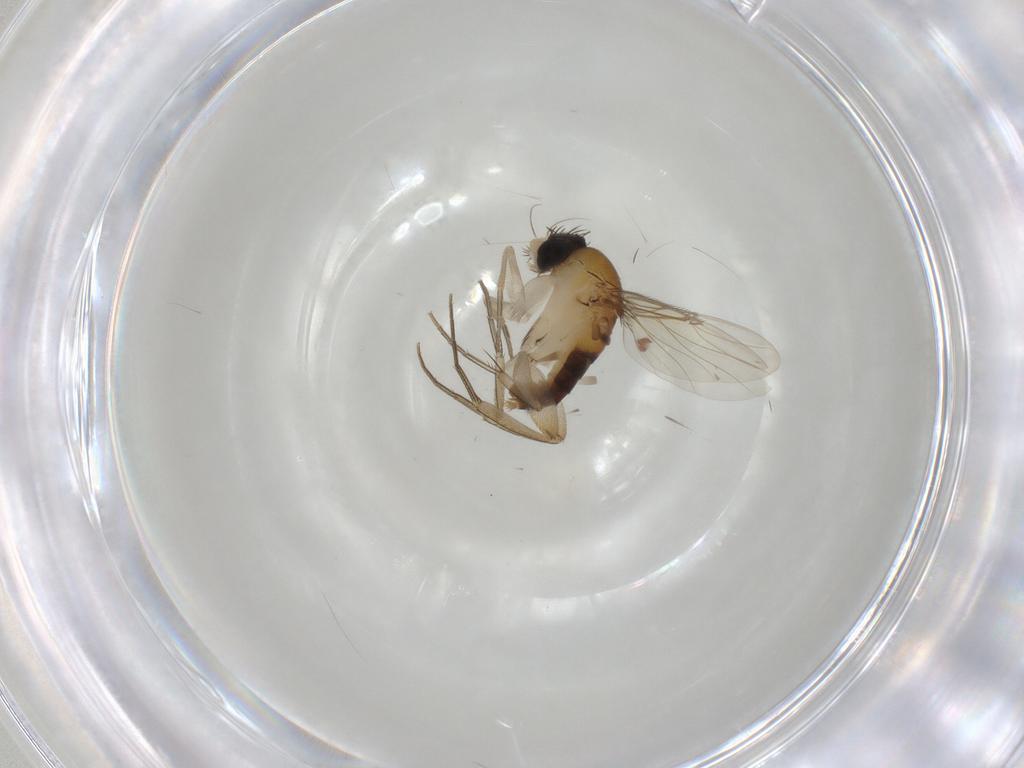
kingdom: Animalia
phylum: Arthropoda
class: Insecta
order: Diptera
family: Phoridae
